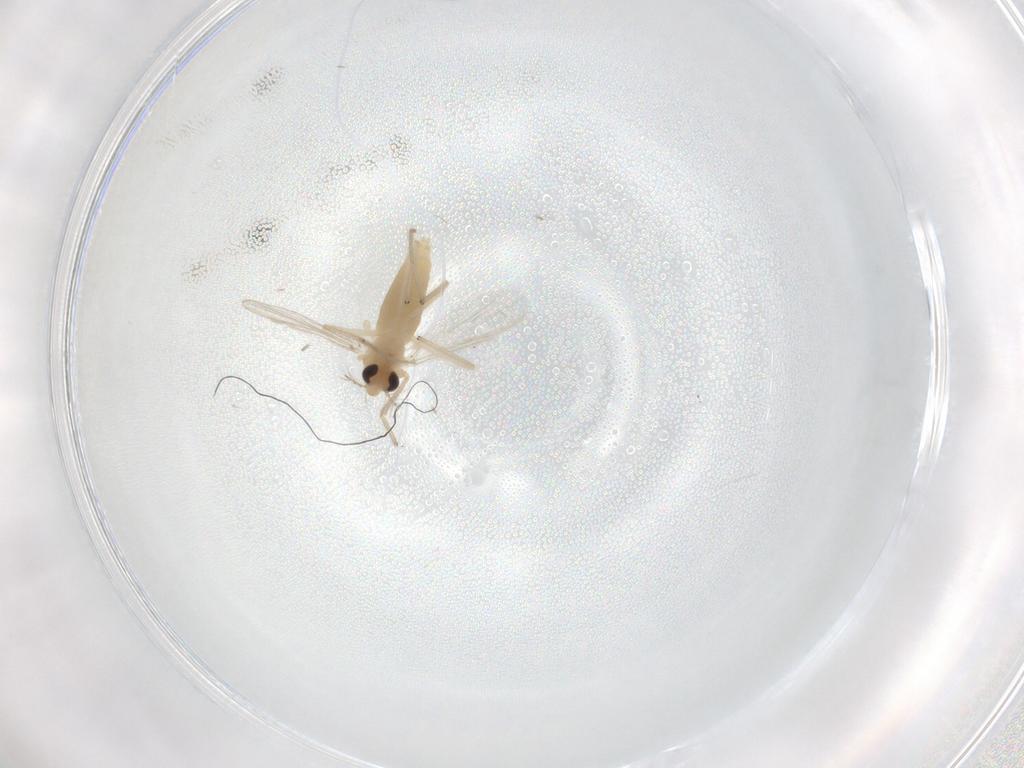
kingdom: Animalia
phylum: Arthropoda
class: Insecta
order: Diptera
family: Chironomidae
